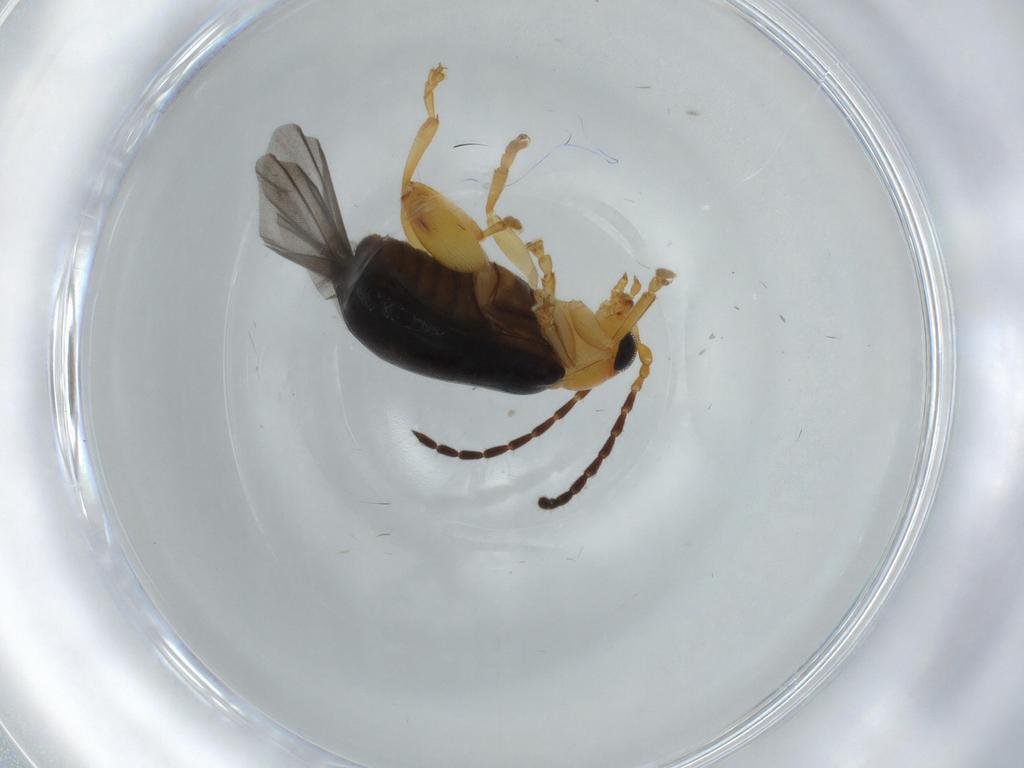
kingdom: Animalia
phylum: Arthropoda
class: Insecta
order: Coleoptera
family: Chrysomelidae
